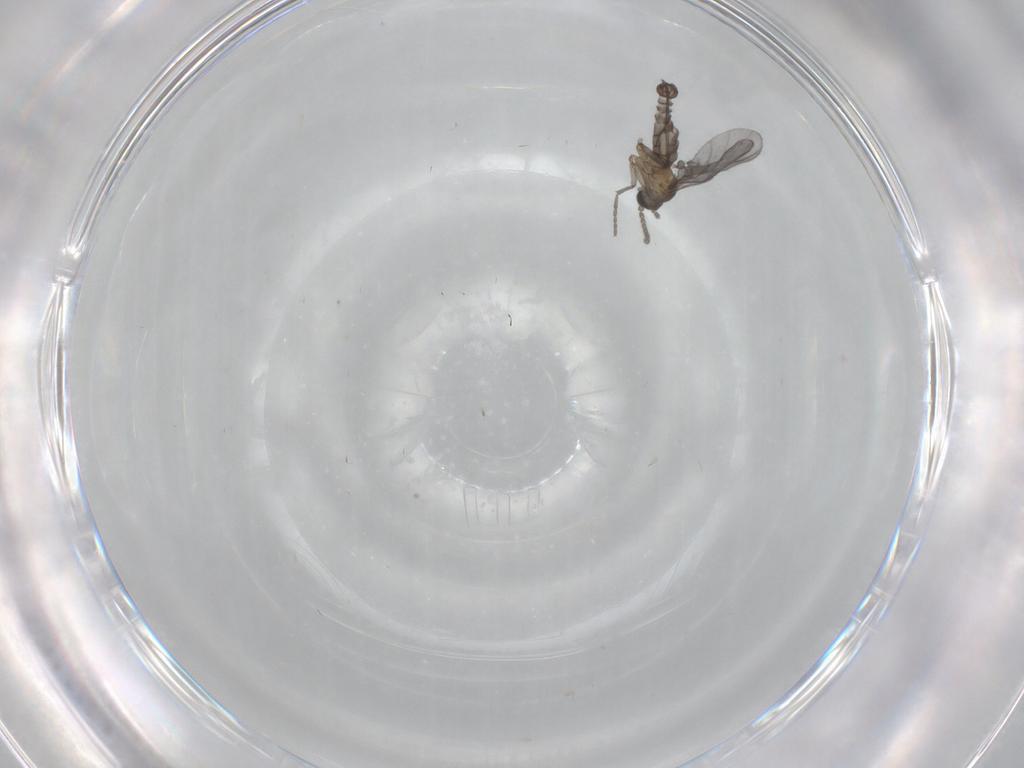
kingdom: Animalia
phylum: Arthropoda
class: Insecta
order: Diptera
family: Sciaridae
